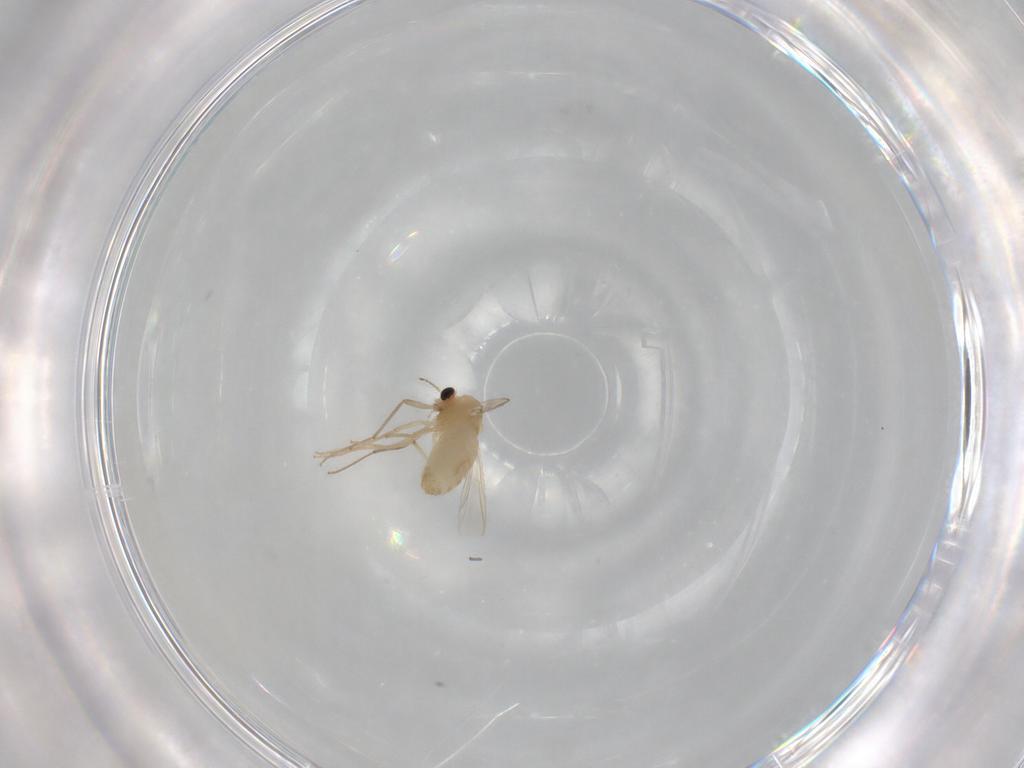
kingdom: Animalia
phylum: Arthropoda
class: Insecta
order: Diptera
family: Chironomidae
